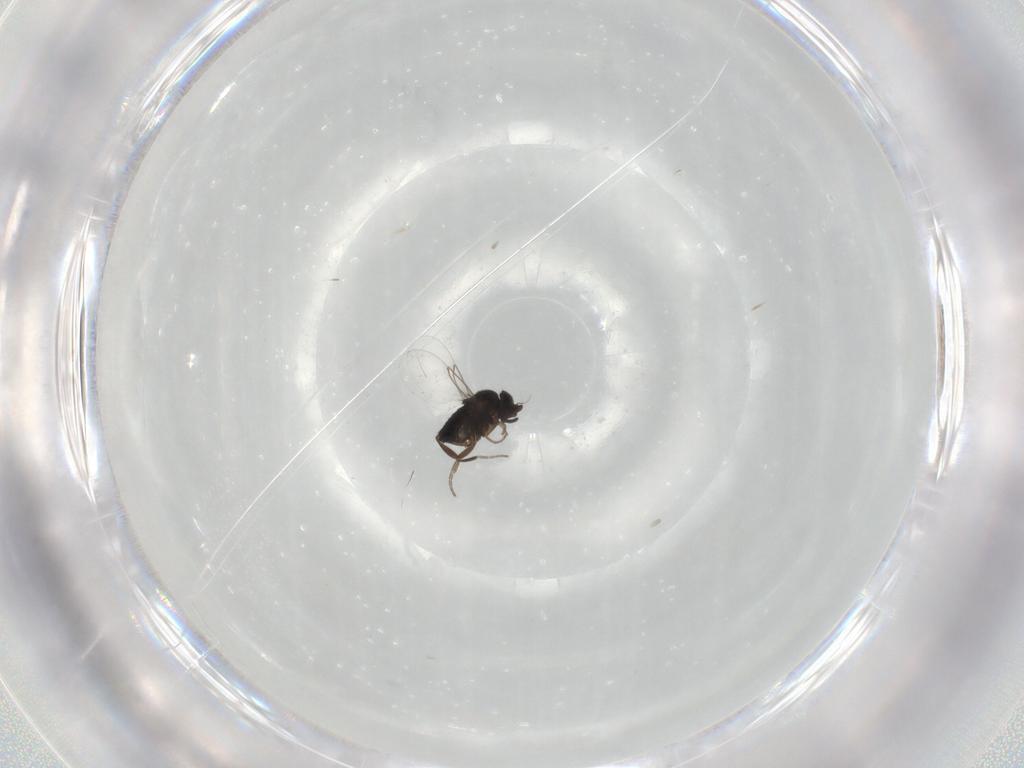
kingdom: Animalia
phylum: Arthropoda
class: Insecta
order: Diptera
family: Phoridae
